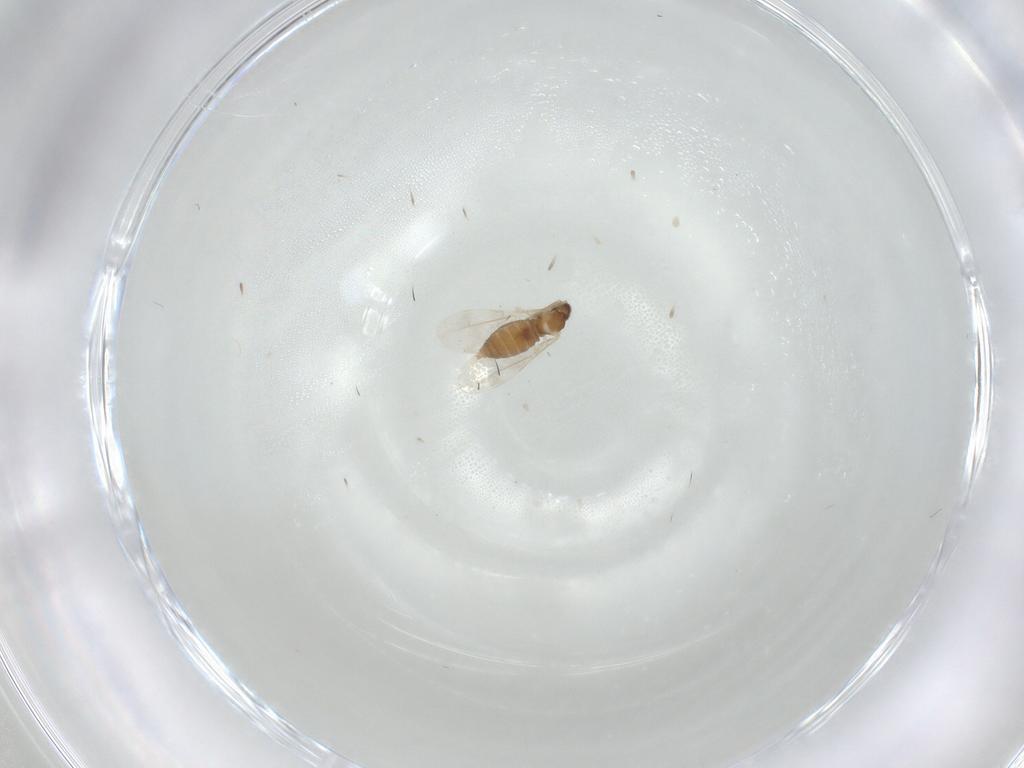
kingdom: Animalia
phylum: Arthropoda
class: Insecta
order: Diptera
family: Cecidomyiidae
